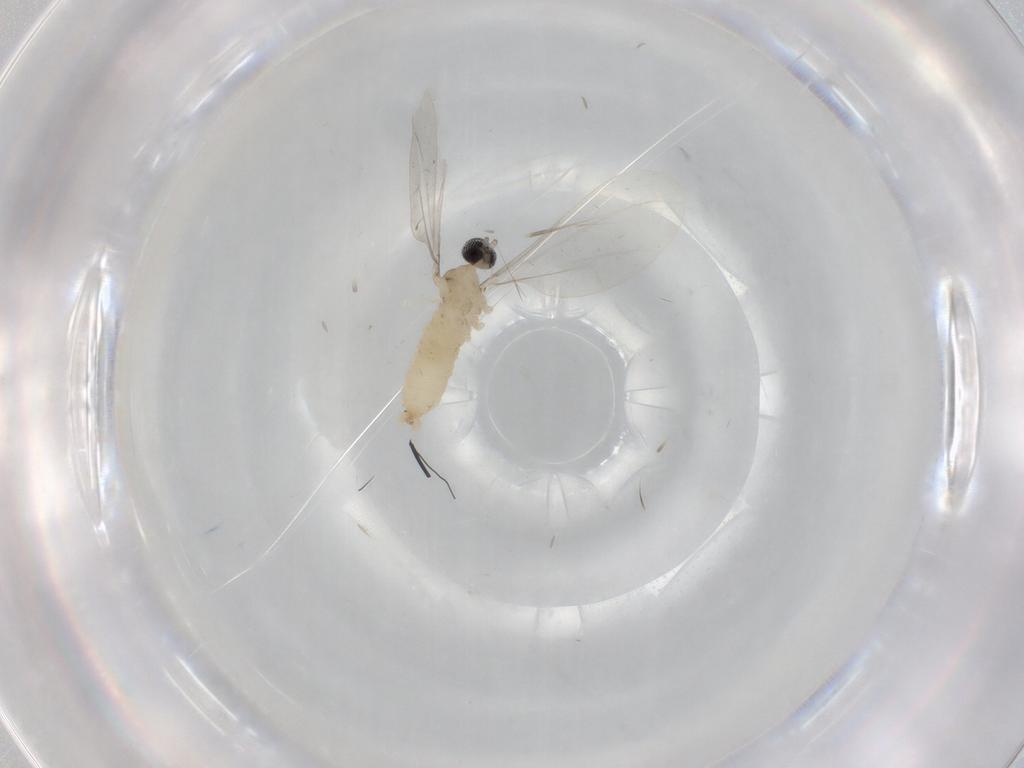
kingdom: Animalia
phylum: Arthropoda
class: Insecta
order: Diptera
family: Cecidomyiidae
